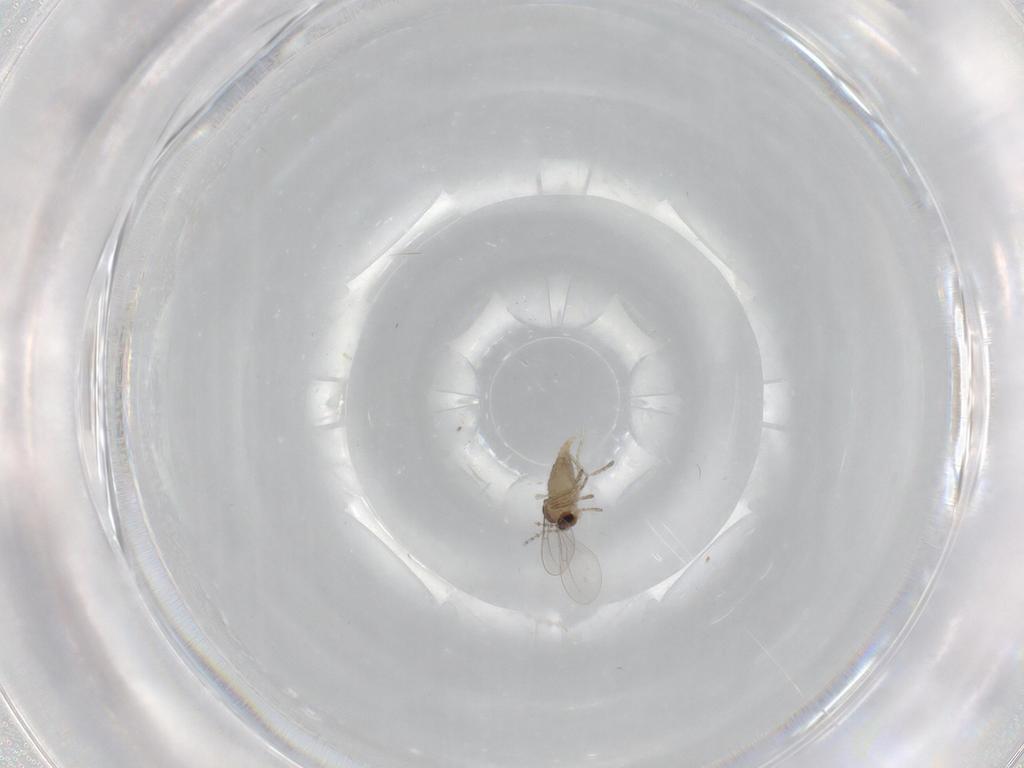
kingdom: Animalia
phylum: Arthropoda
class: Insecta
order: Diptera
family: Cecidomyiidae
